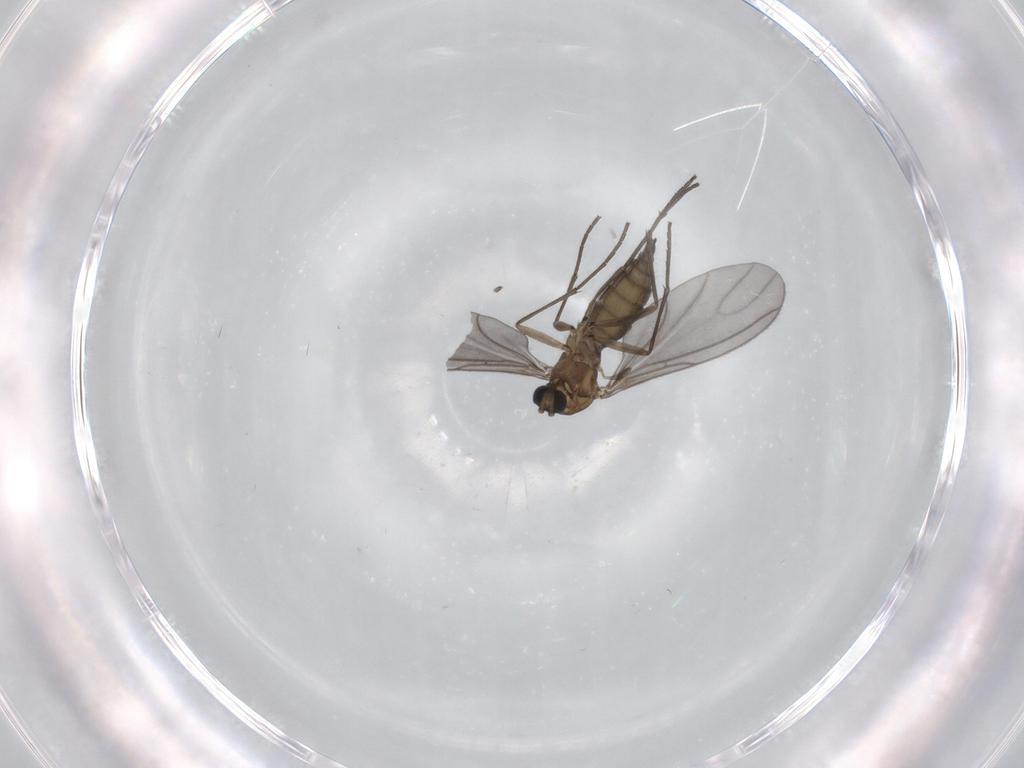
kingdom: Animalia
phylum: Arthropoda
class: Insecta
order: Diptera
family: Sciaridae
